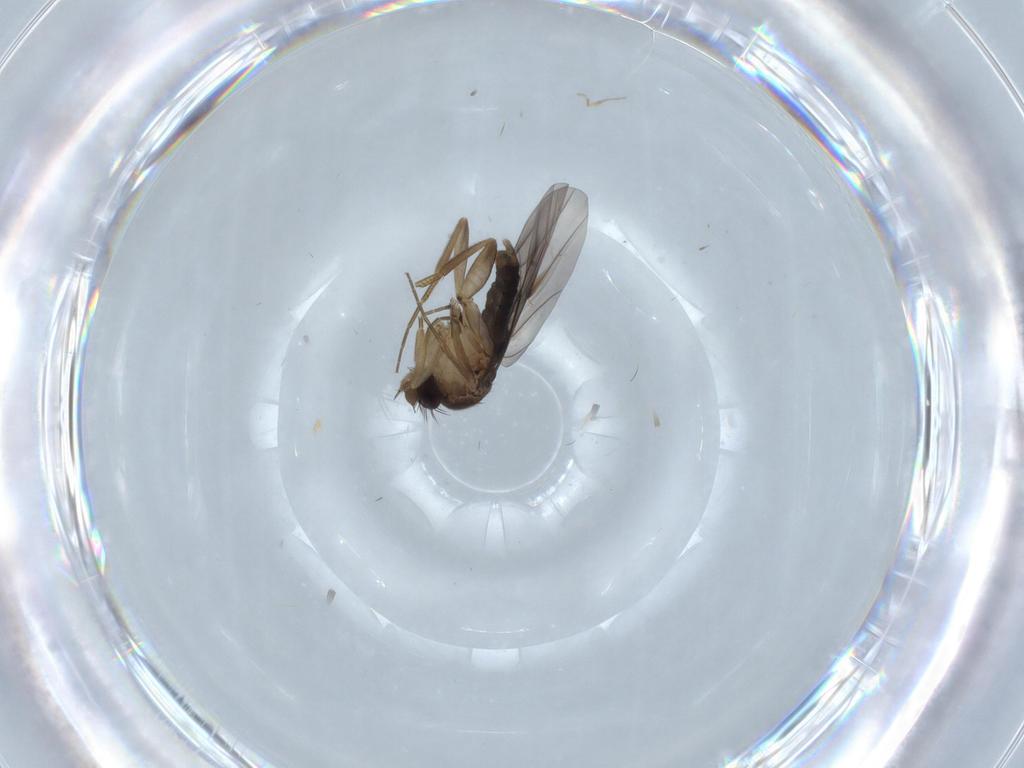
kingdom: Animalia
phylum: Arthropoda
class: Insecta
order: Diptera
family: Phoridae
